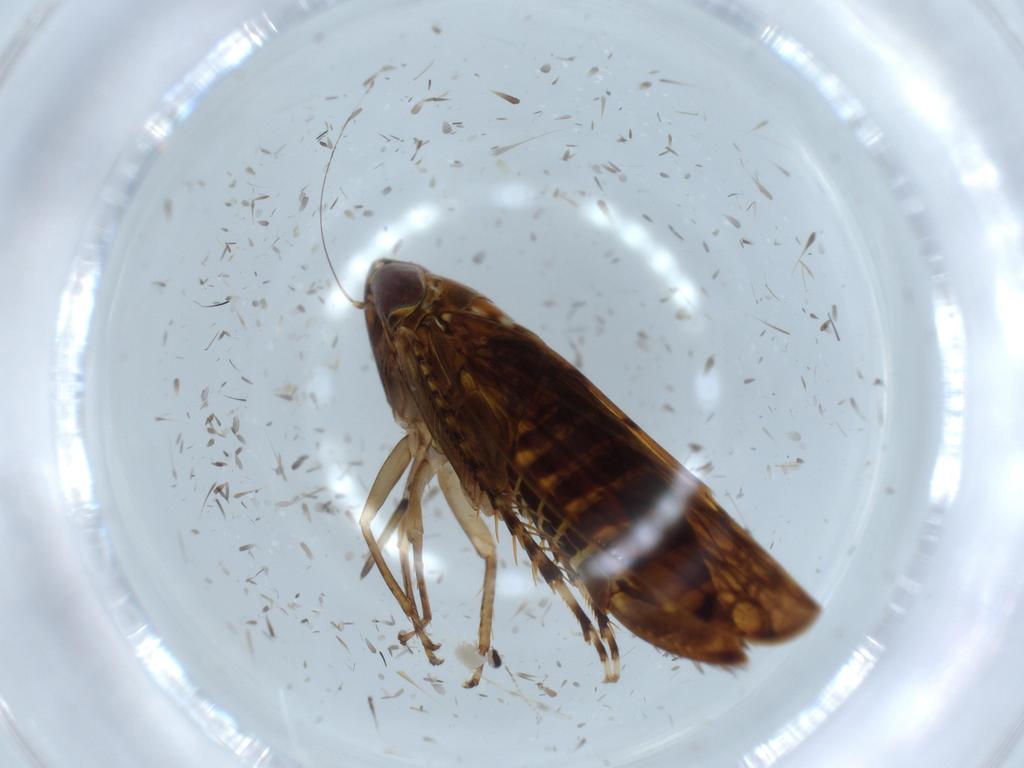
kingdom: Animalia
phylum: Arthropoda
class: Insecta
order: Hemiptera
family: Cicadellidae
